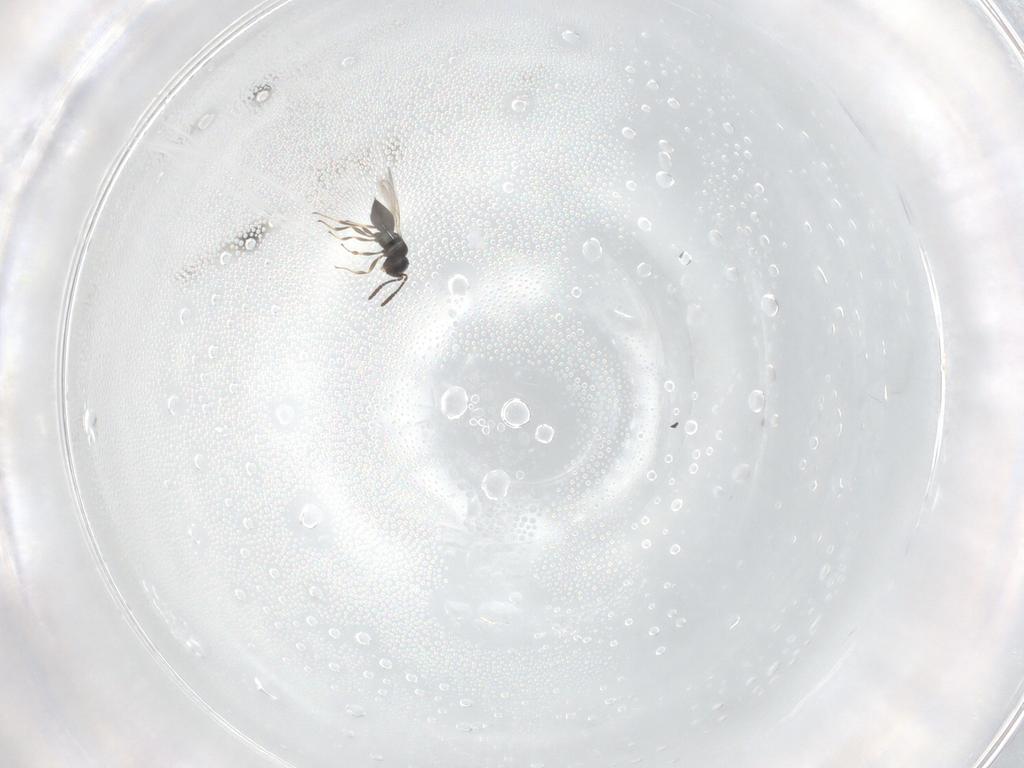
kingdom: Animalia
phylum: Arthropoda
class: Insecta
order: Hymenoptera
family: Scelionidae
